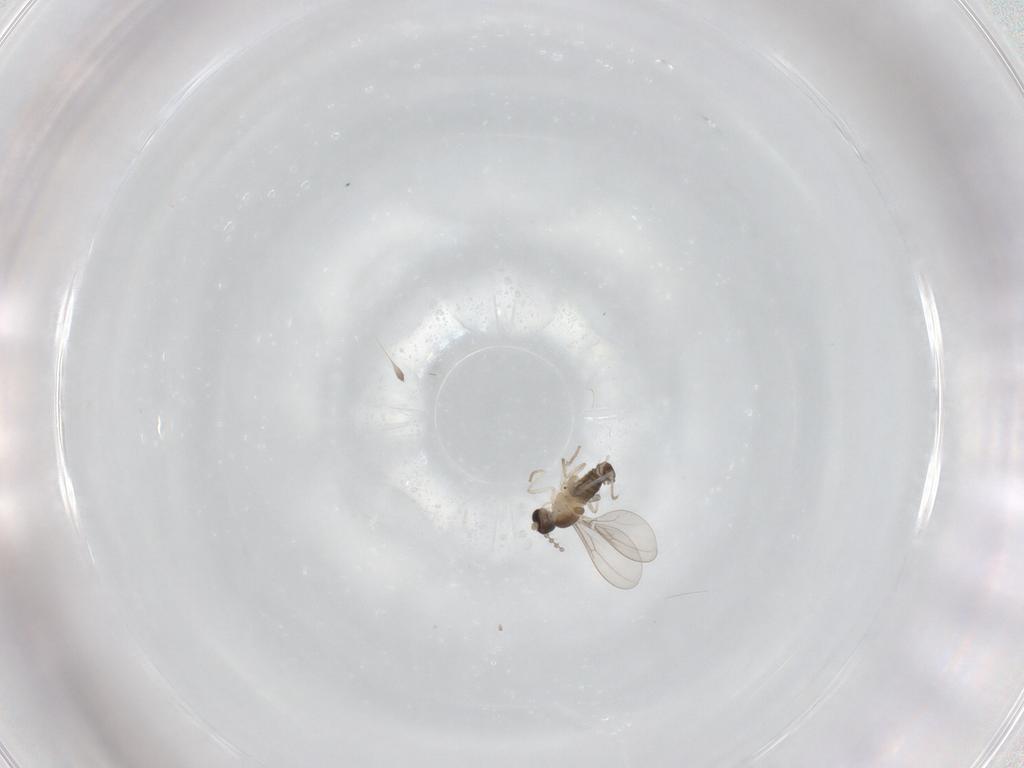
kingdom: Animalia
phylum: Arthropoda
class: Insecta
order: Diptera
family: Cecidomyiidae
